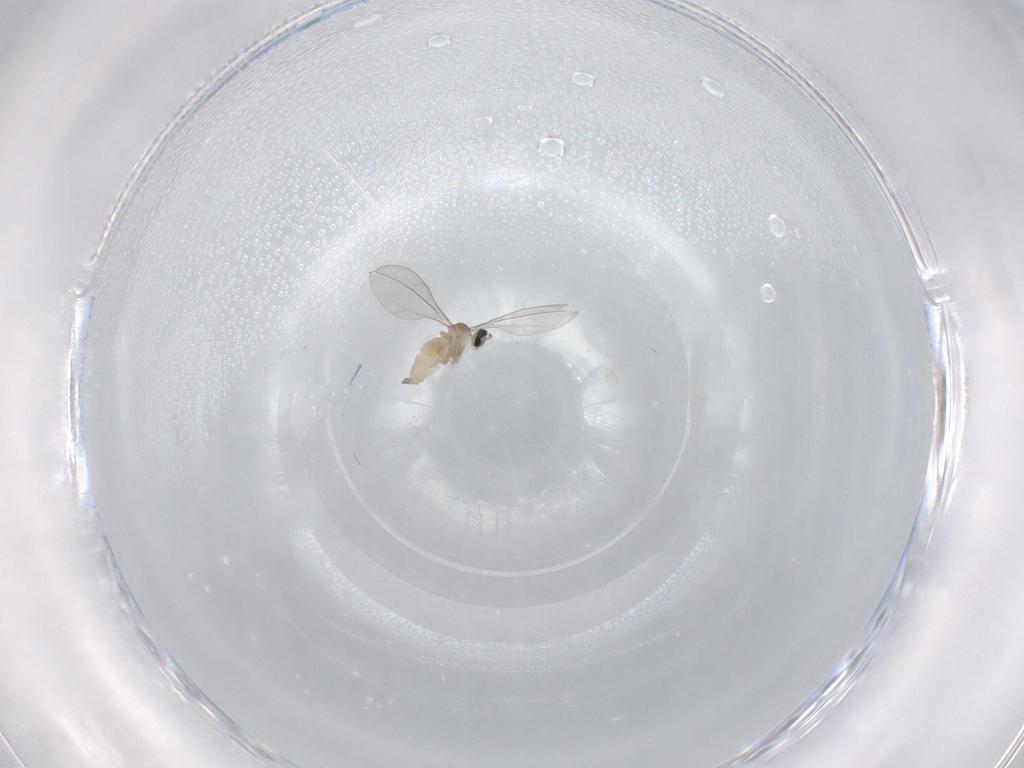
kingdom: Animalia
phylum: Arthropoda
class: Insecta
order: Diptera
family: Cecidomyiidae
